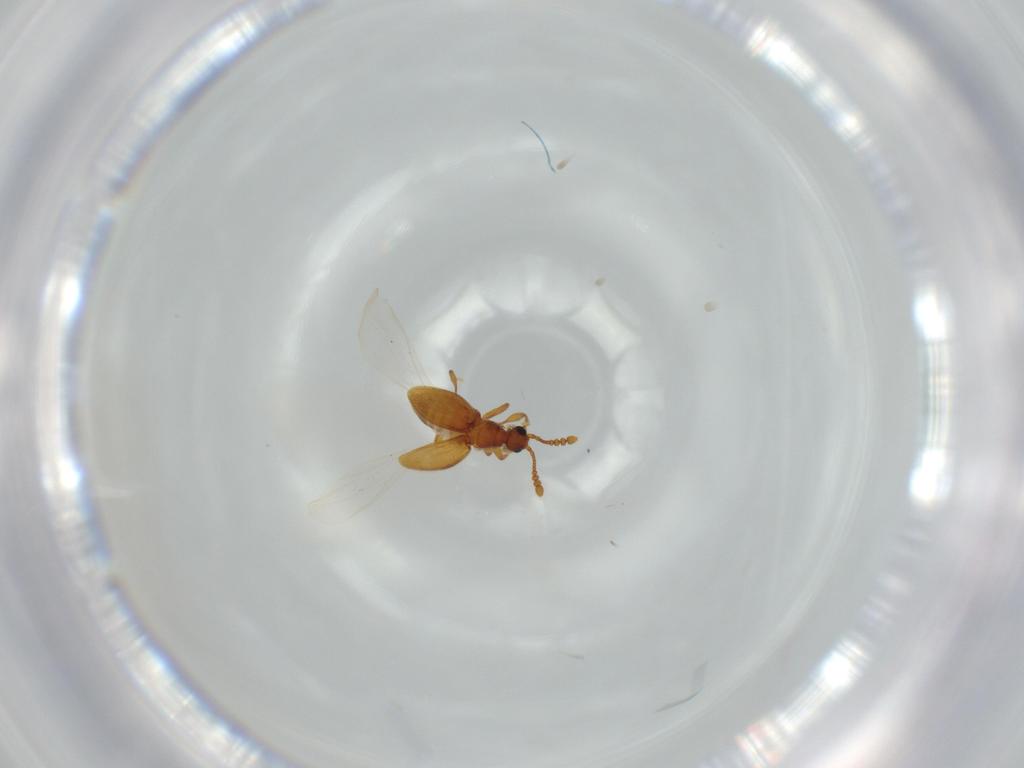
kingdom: Animalia
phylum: Arthropoda
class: Insecta
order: Coleoptera
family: Staphylinidae
